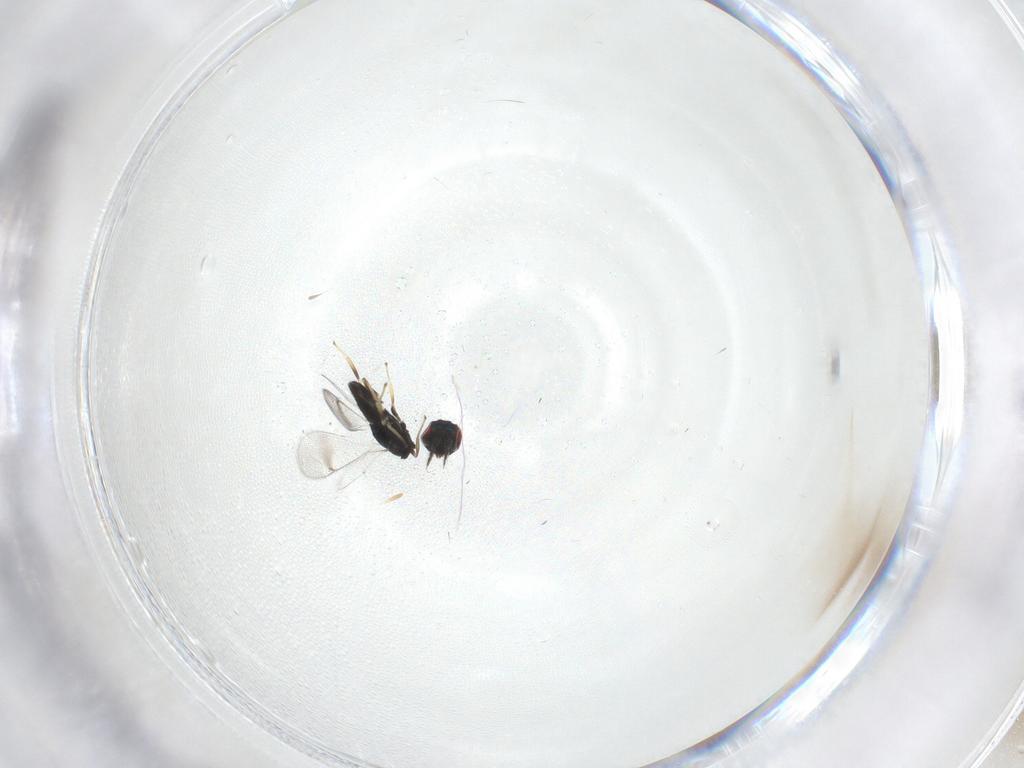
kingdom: Animalia
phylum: Arthropoda
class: Insecta
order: Hymenoptera
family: Eulophidae
